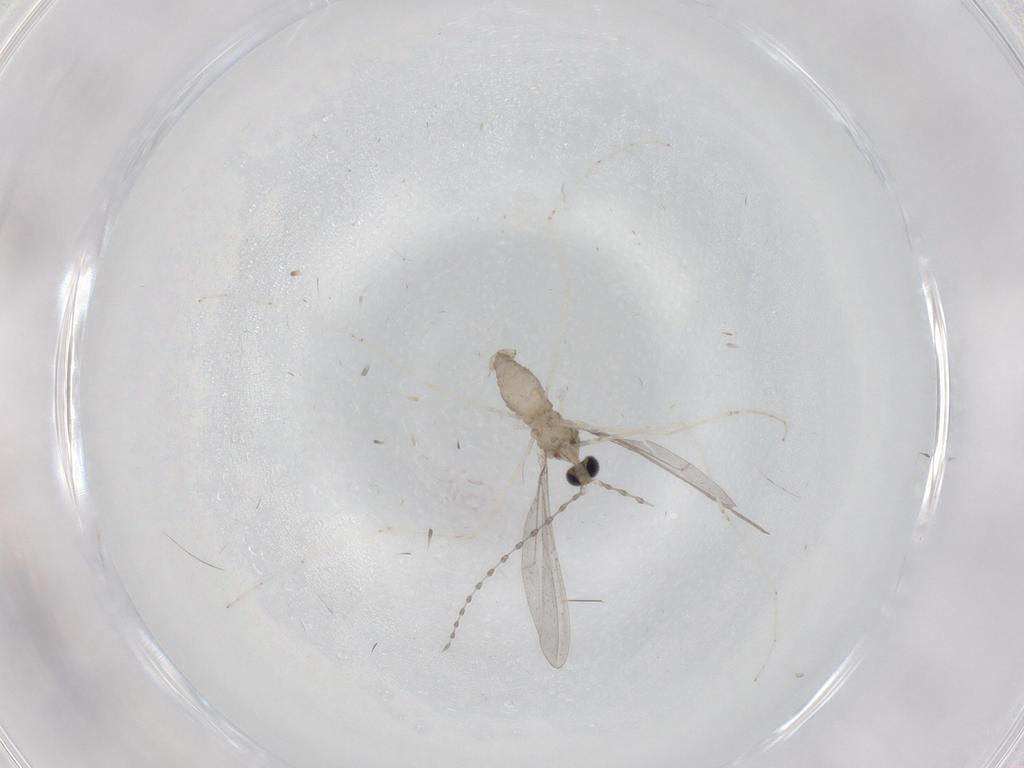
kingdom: Animalia
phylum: Arthropoda
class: Insecta
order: Diptera
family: Cecidomyiidae
